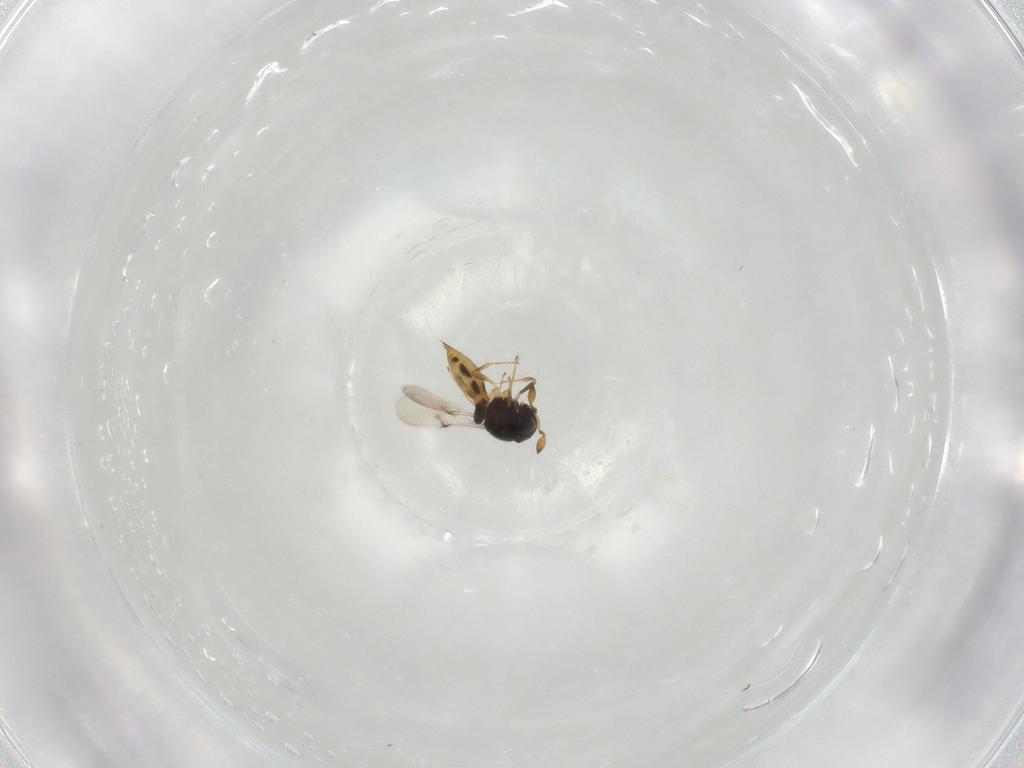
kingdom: Animalia
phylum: Arthropoda
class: Insecta
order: Hymenoptera
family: Scelionidae
